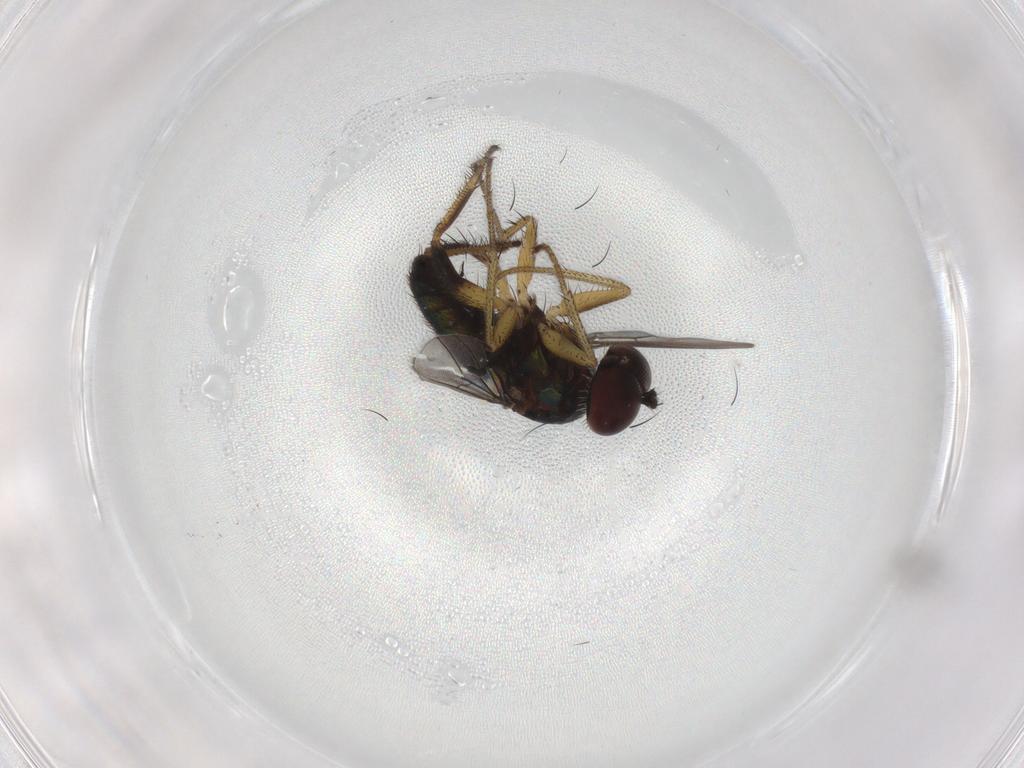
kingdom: Animalia
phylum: Arthropoda
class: Insecta
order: Diptera
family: Dolichopodidae
